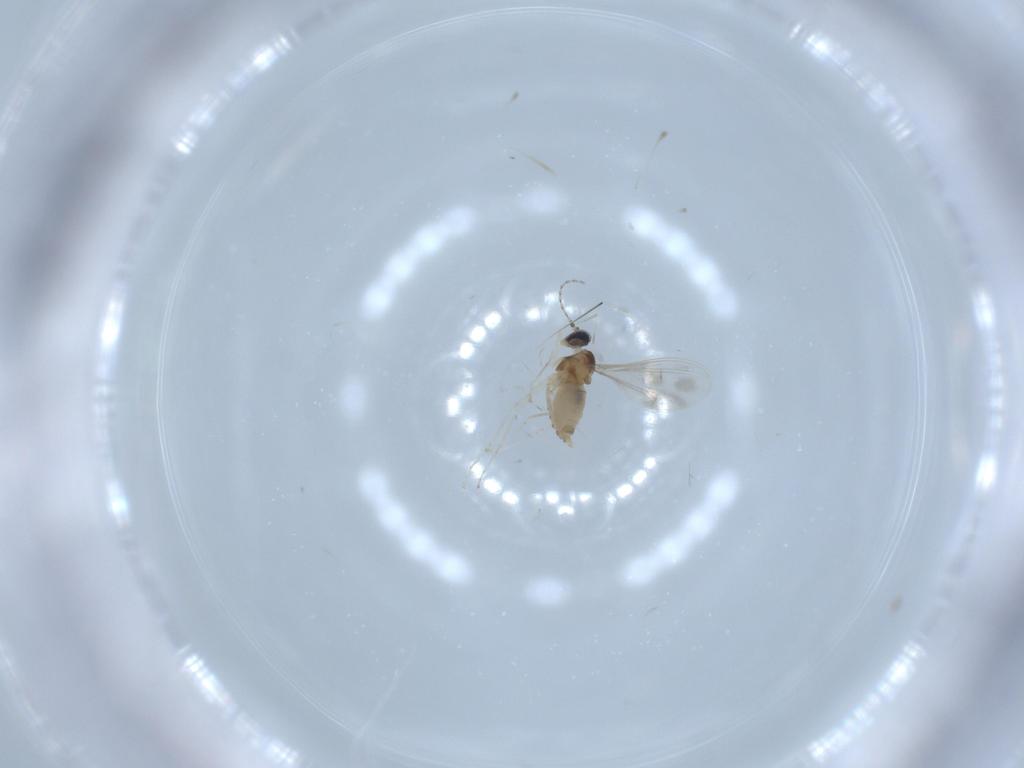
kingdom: Animalia
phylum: Arthropoda
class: Insecta
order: Diptera
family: Cecidomyiidae
